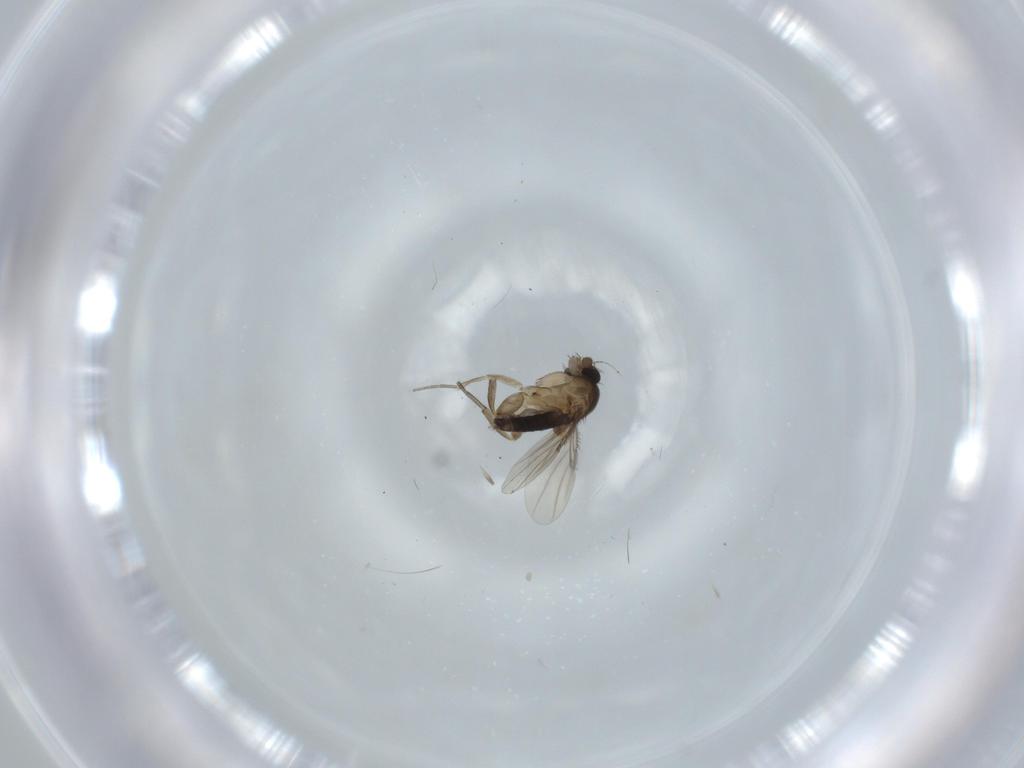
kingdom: Animalia
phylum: Arthropoda
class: Insecta
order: Diptera
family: Phoridae
